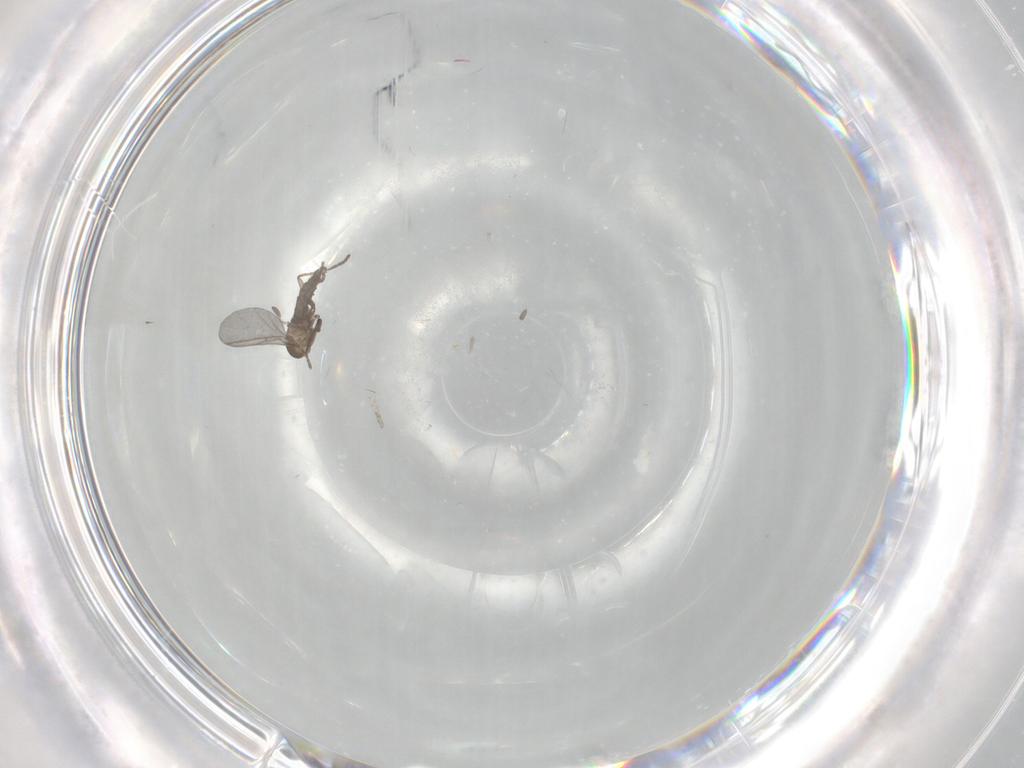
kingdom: Animalia
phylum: Arthropoda
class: Insecta
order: Diptera
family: Sciaridae
